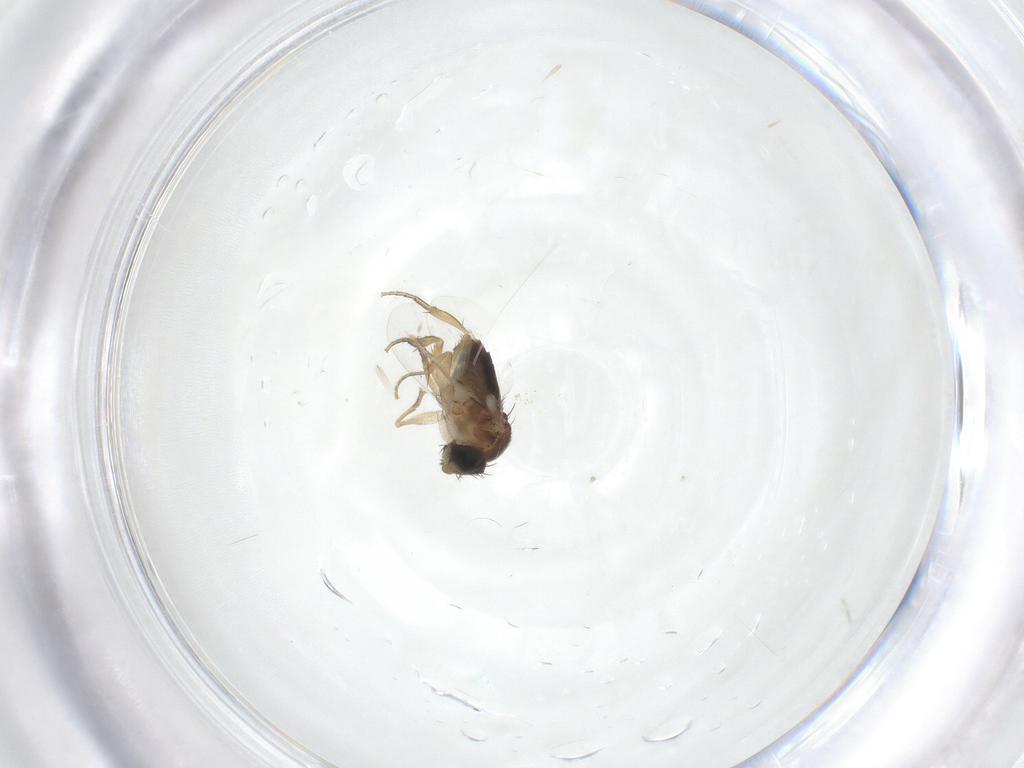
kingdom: Animalia
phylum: Arthropoda
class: Insecta
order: Diptera
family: Phoridae
